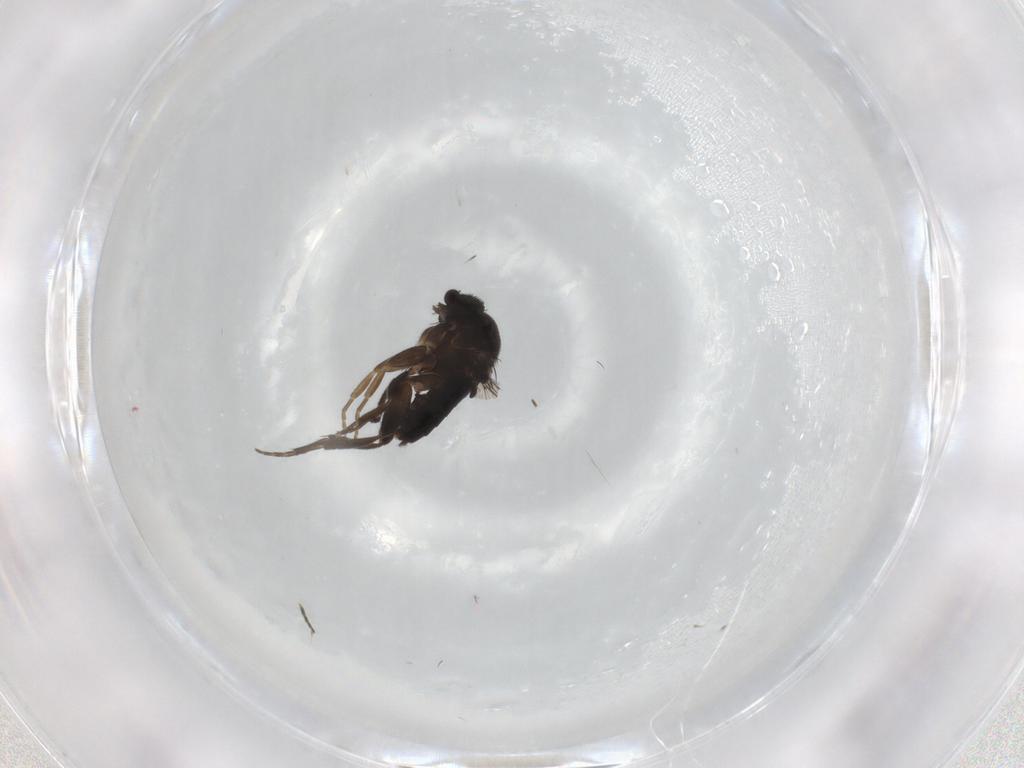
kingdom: Animalia
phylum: Arthropoda
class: Insecta
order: Diptera
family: Phoridae
